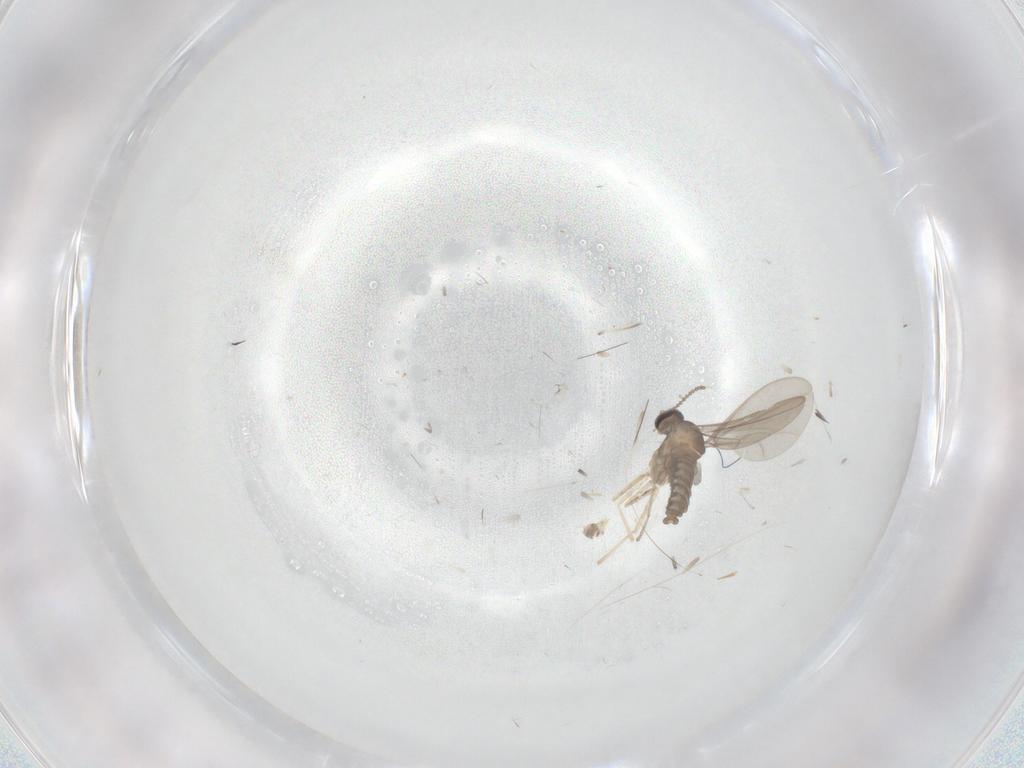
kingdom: Animalia
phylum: Arthropoda
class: Insecta
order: Diptera
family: Cecidomyiidae
